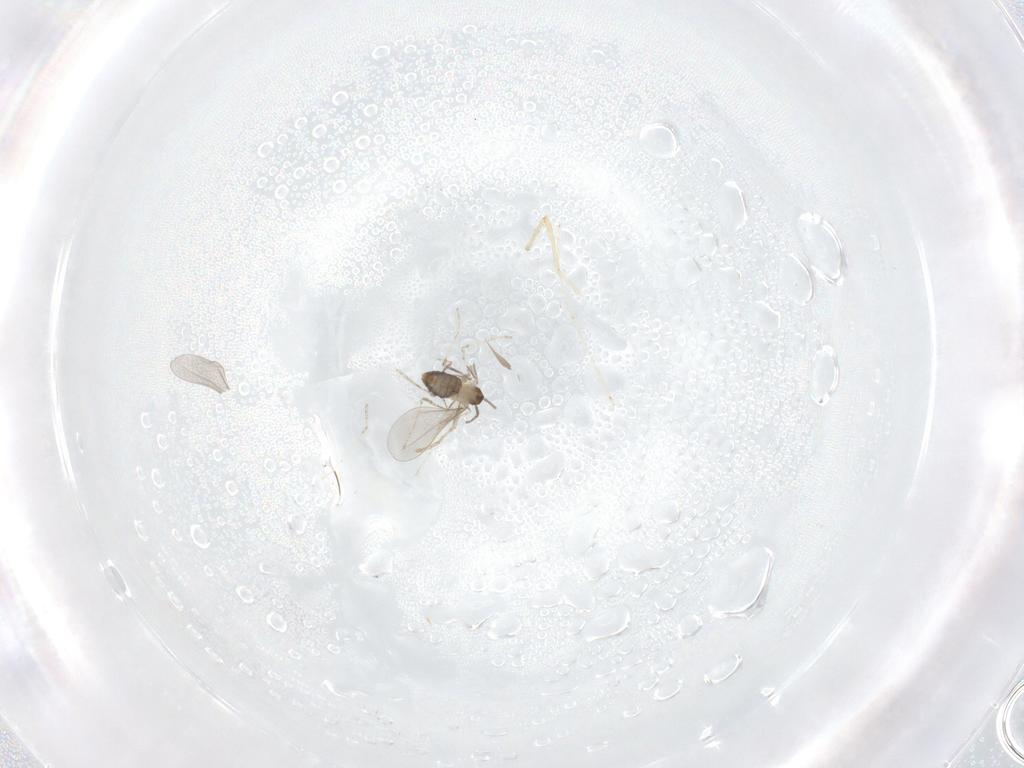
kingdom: Animalia
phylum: Arthropoda
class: Insecta
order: Diptera
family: Cecidomyiidae
